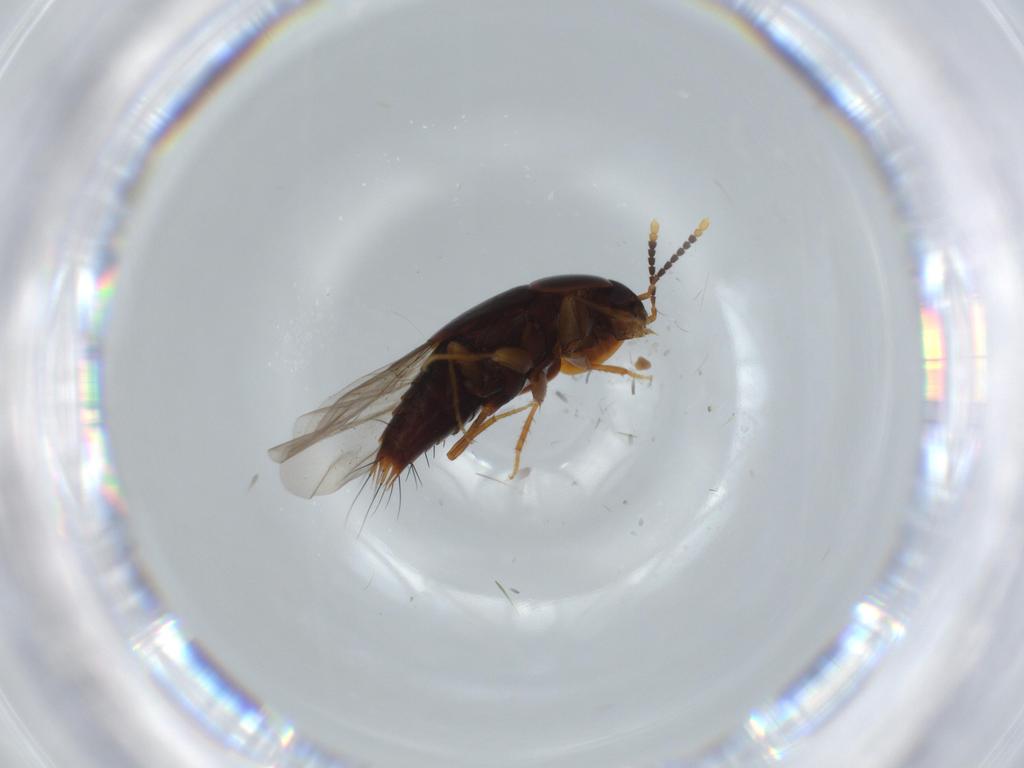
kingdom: Animalia
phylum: Arthropoda
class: Insecta
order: Coleoptera
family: Staphylinidae
